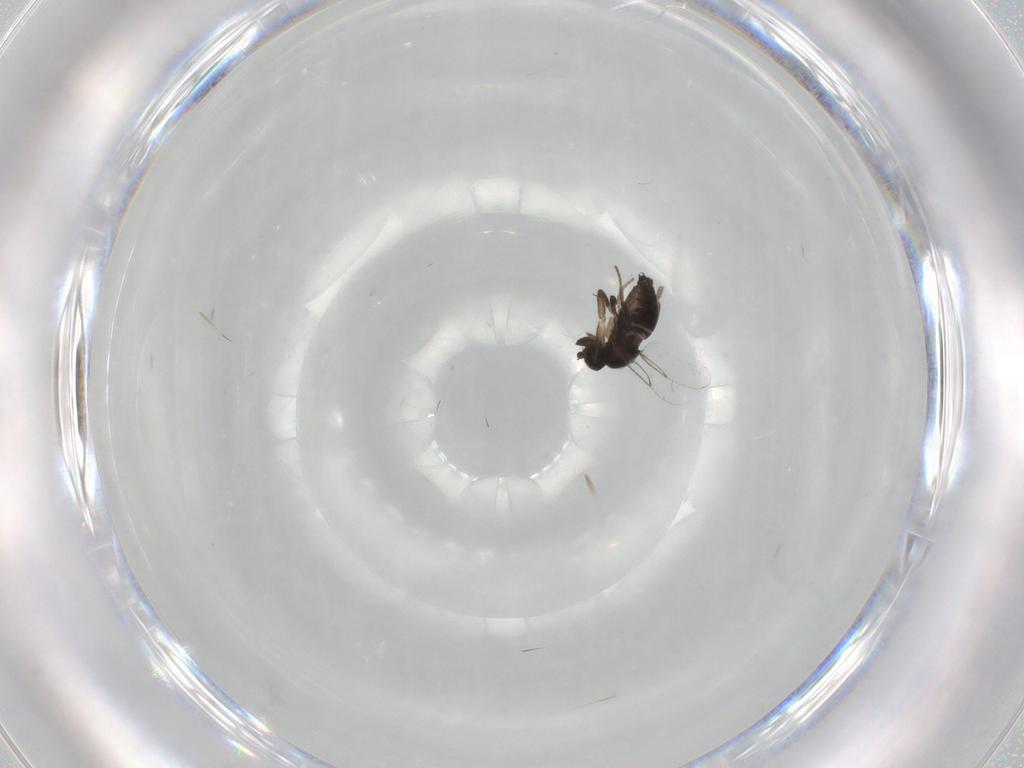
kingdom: Animalia
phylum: Arthropoda
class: Insecta
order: Diptera
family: Phoridae
